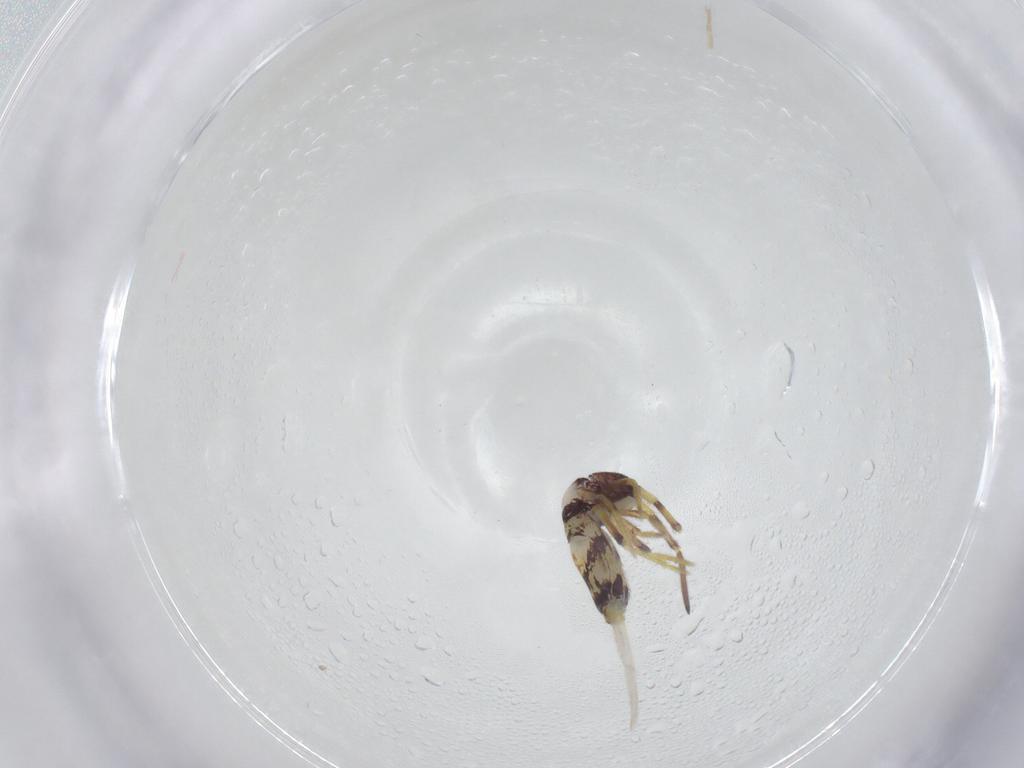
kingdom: Animalia
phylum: Arthropoda
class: Collembola
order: Entomobryomorpha
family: Entomobryidae
